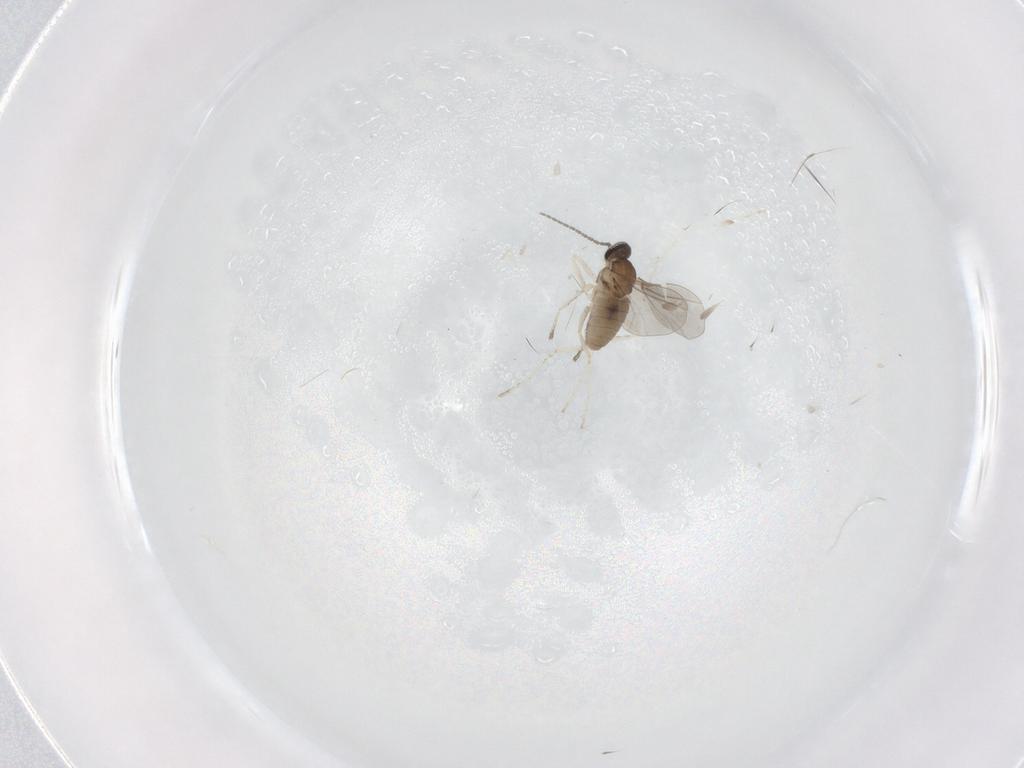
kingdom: Animalia
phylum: Arthropoda
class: Insecta
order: Diptera
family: Cecidomyiidae
